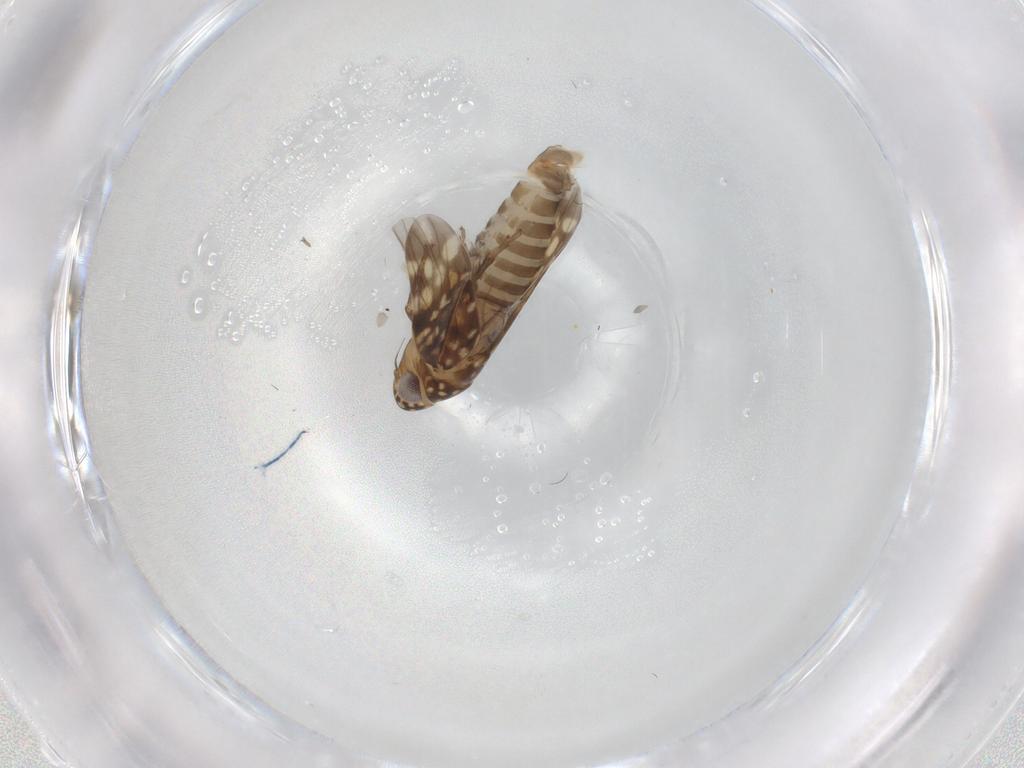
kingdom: Animalia
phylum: Arthropoda
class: Insecta
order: Hemiptera
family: Cicadellidae
